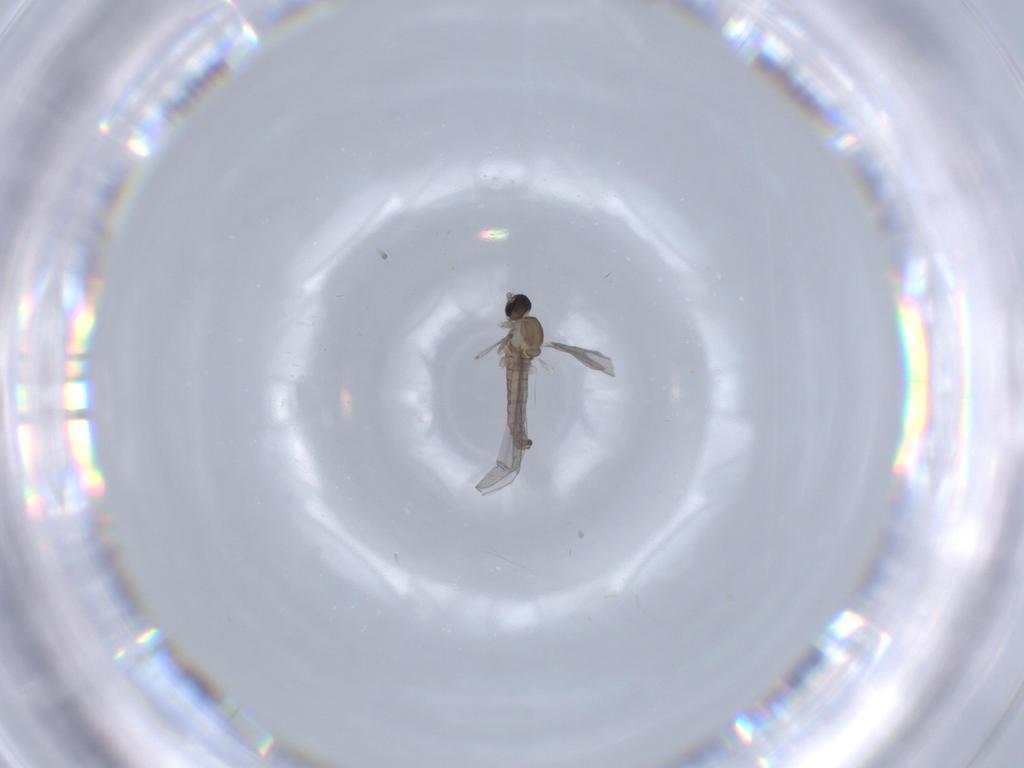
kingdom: Animalia
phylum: Arthropoda
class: Insecta
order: Diptera
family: Cecidomyiidae
